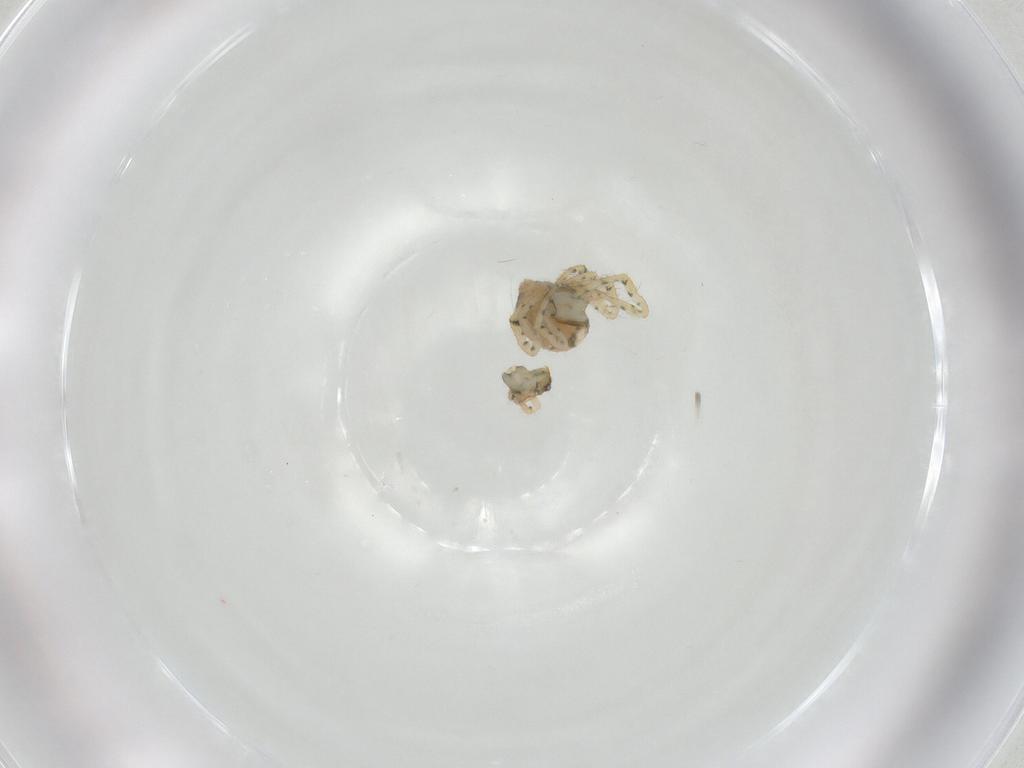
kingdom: Animalia
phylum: Arthropoda
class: Arachnida
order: Araneae
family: Theridiidae
